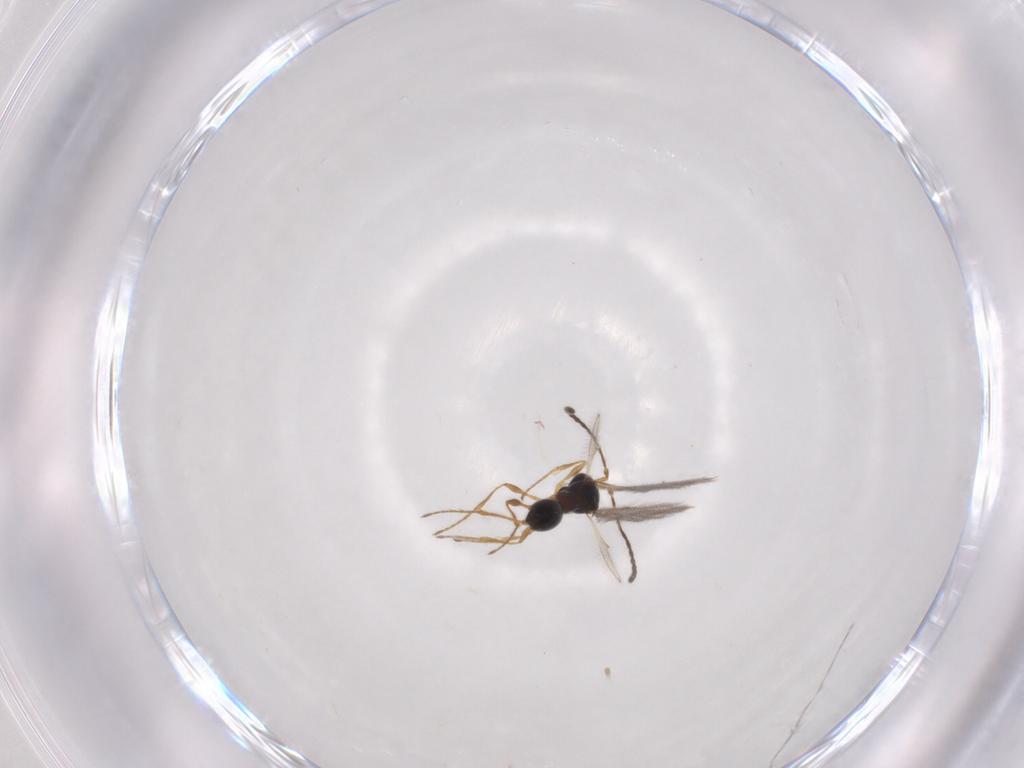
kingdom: Animalia
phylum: Arthropoda
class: Insecta
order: Hymenoptera
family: Diapriidae
